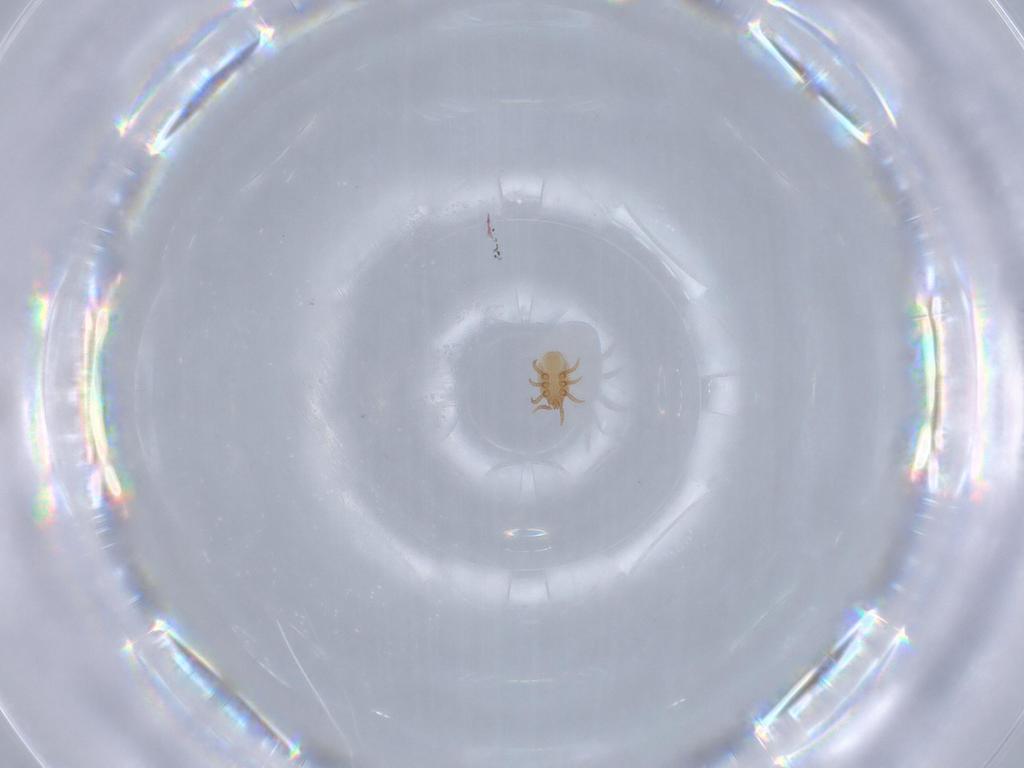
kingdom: Animalia
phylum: Arthropoda
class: Arachnida
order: Mesostigmata
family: Dinychidae
